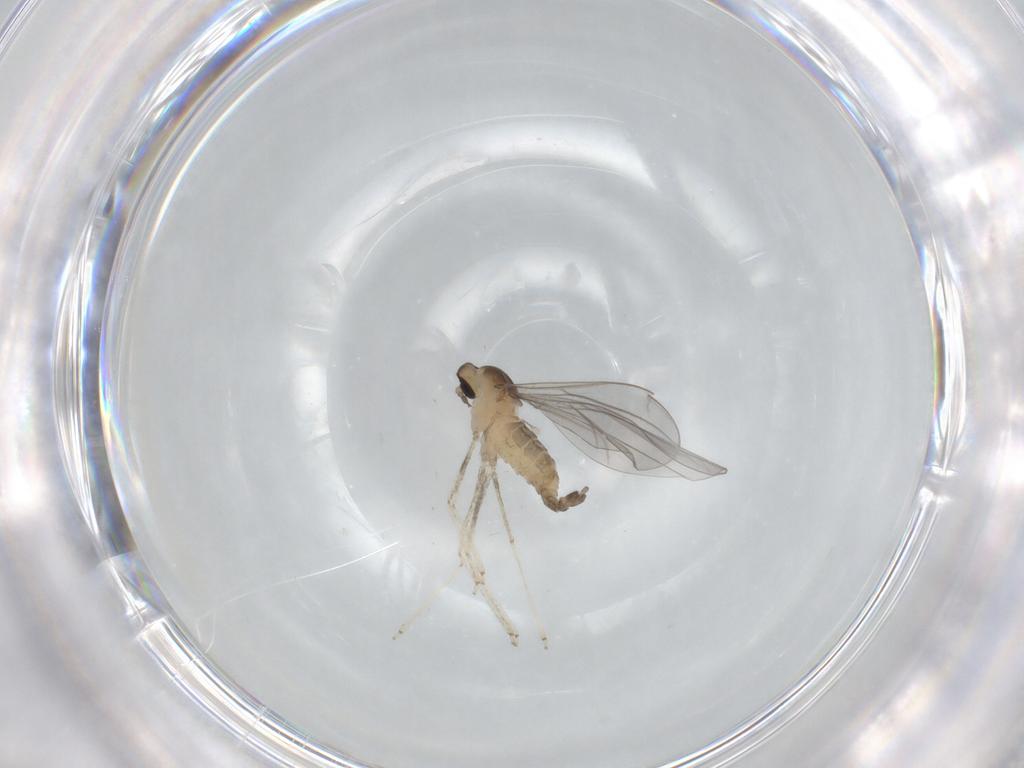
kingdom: Animalia
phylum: Arthropoda
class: Insecta
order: Diptera
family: Cecidomyiidae
